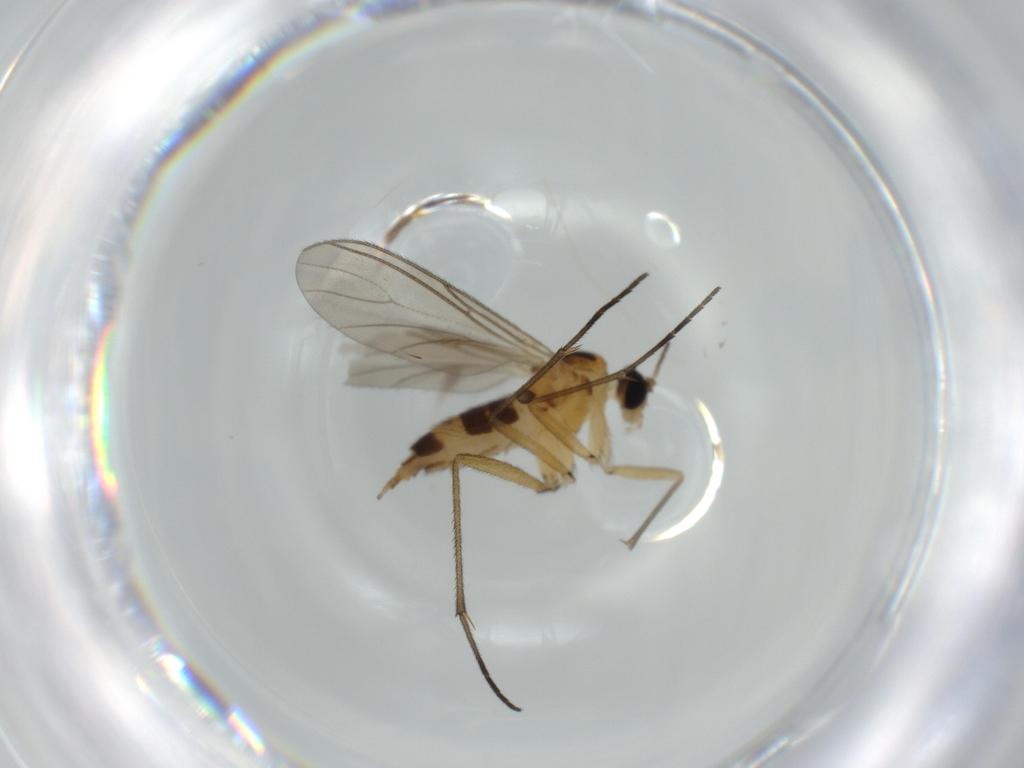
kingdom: Animalia
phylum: Arthropoda
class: Insecta
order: Diptera
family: Sciaridae
